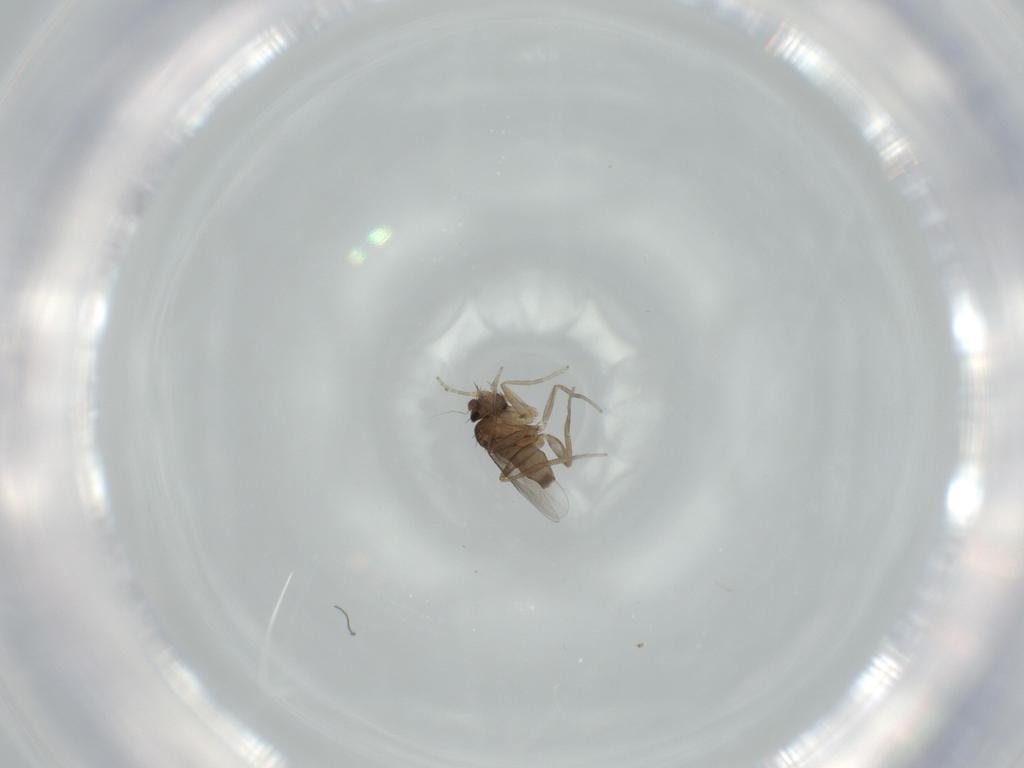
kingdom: Animalia
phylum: Arthropoda
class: Insecta
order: Diptera
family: Phoridae
